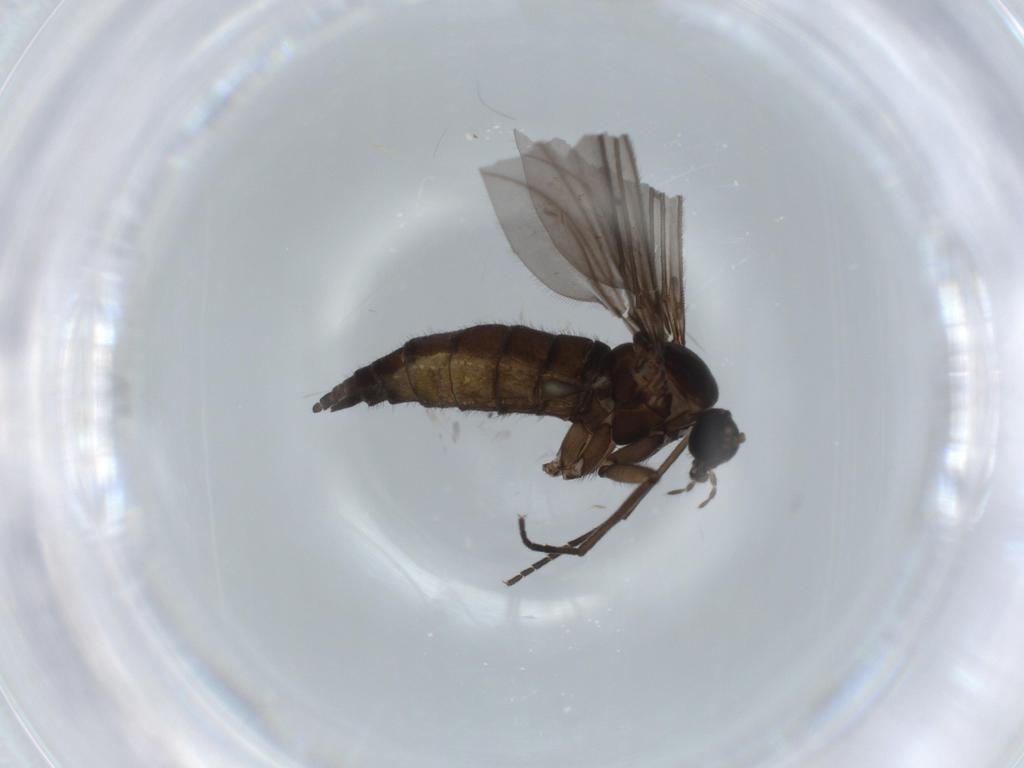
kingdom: Animalia
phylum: Arthropoda
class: Insecta
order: Diptera
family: Sciaridae
